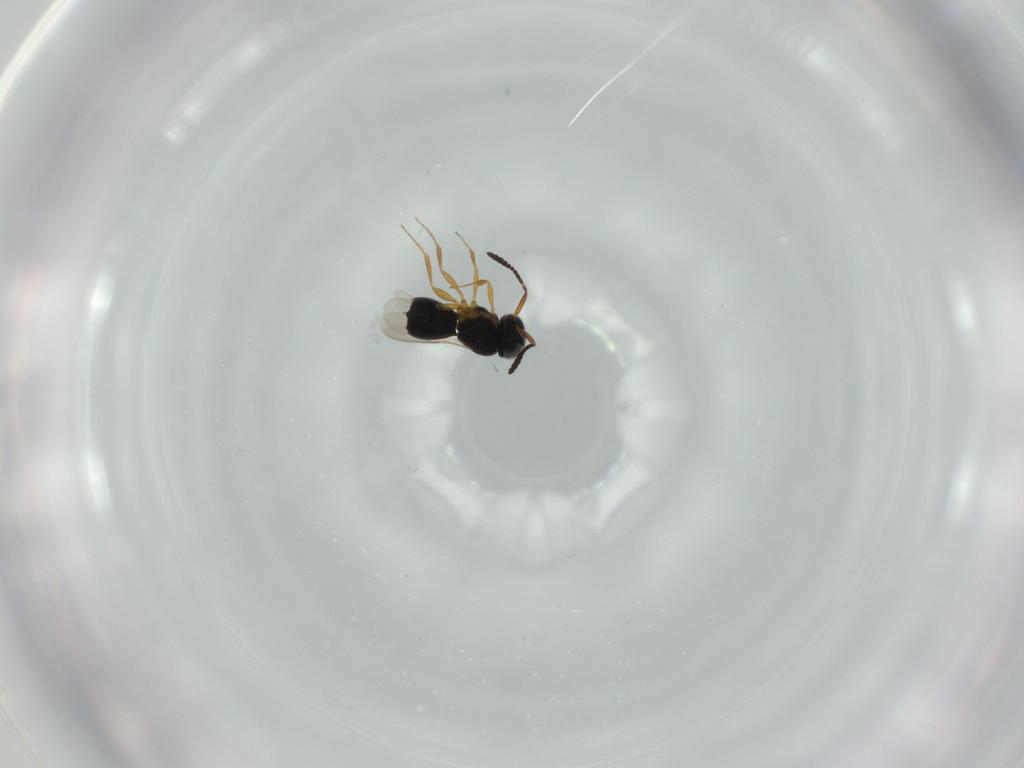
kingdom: Animalia
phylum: Arthropoda
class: Insecta
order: Hymenoptera
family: Scelionidae
